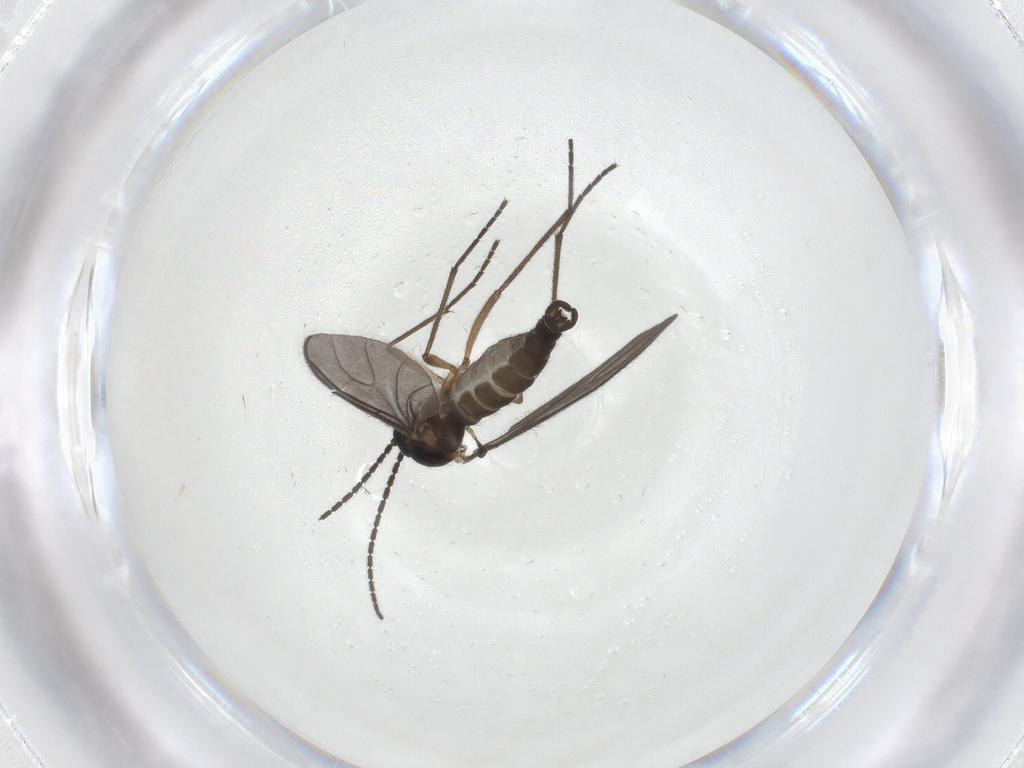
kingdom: Animalia
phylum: Arthropoda
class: Insecta
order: Diptera
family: Sciaridae
